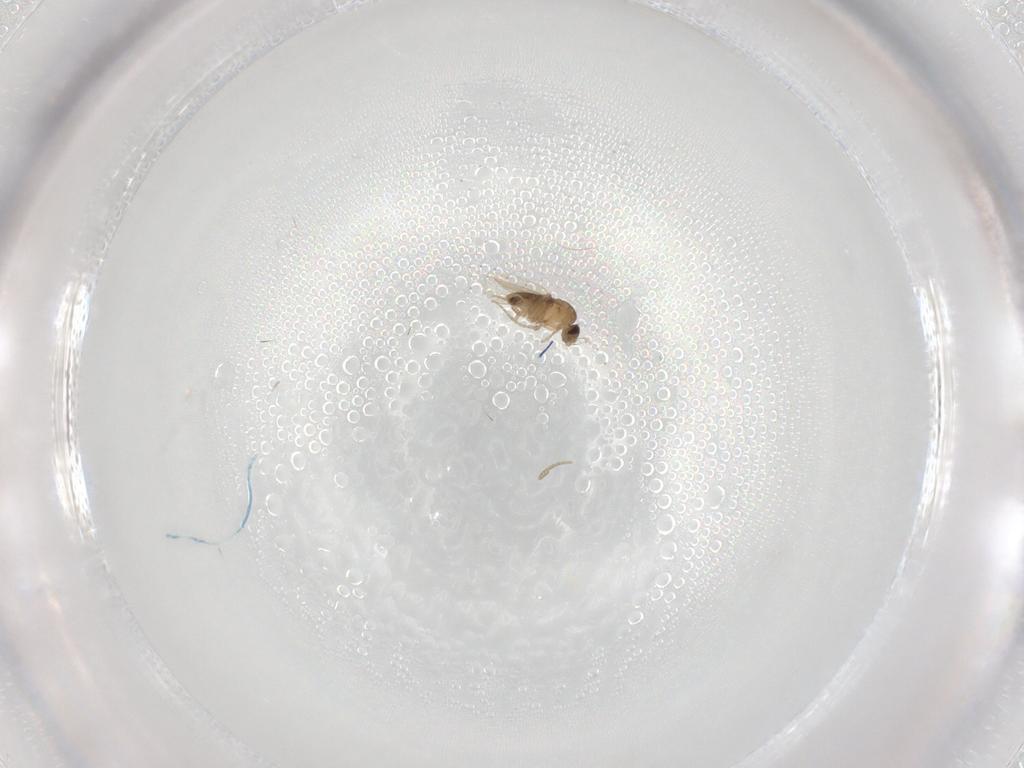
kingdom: Animalia
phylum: Arthropoda
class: Insecta
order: Diptera
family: Phoridae
